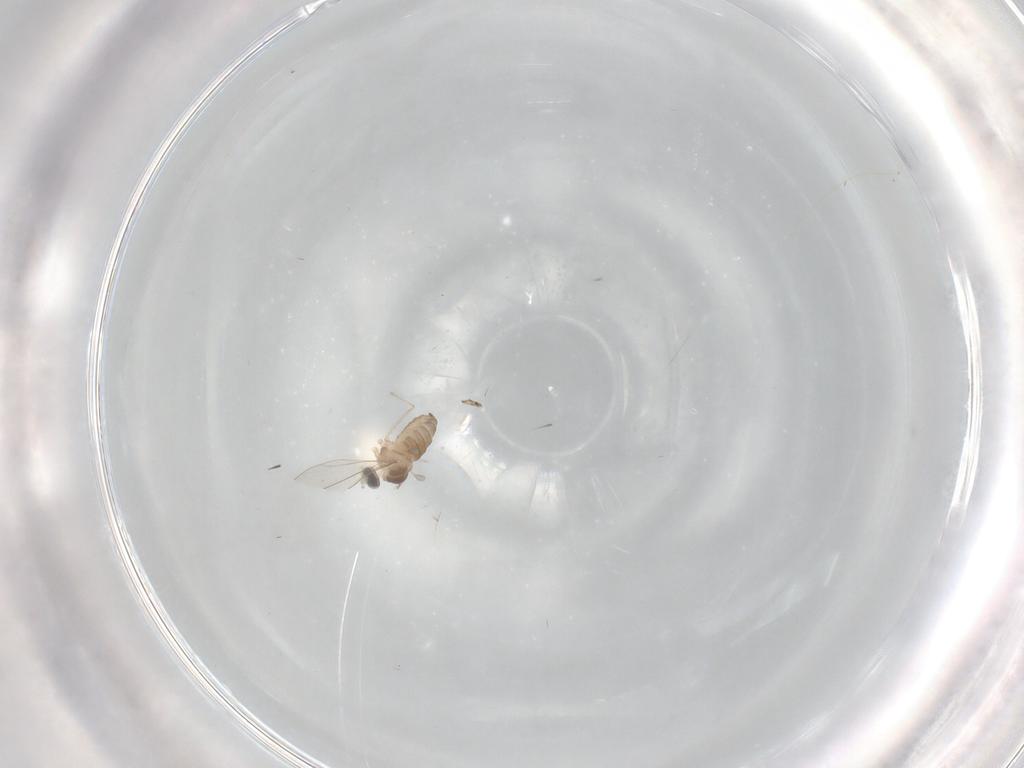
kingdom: Animalia
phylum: Arthropoda
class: Insecta
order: Diptera
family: Cecidomyiidae
